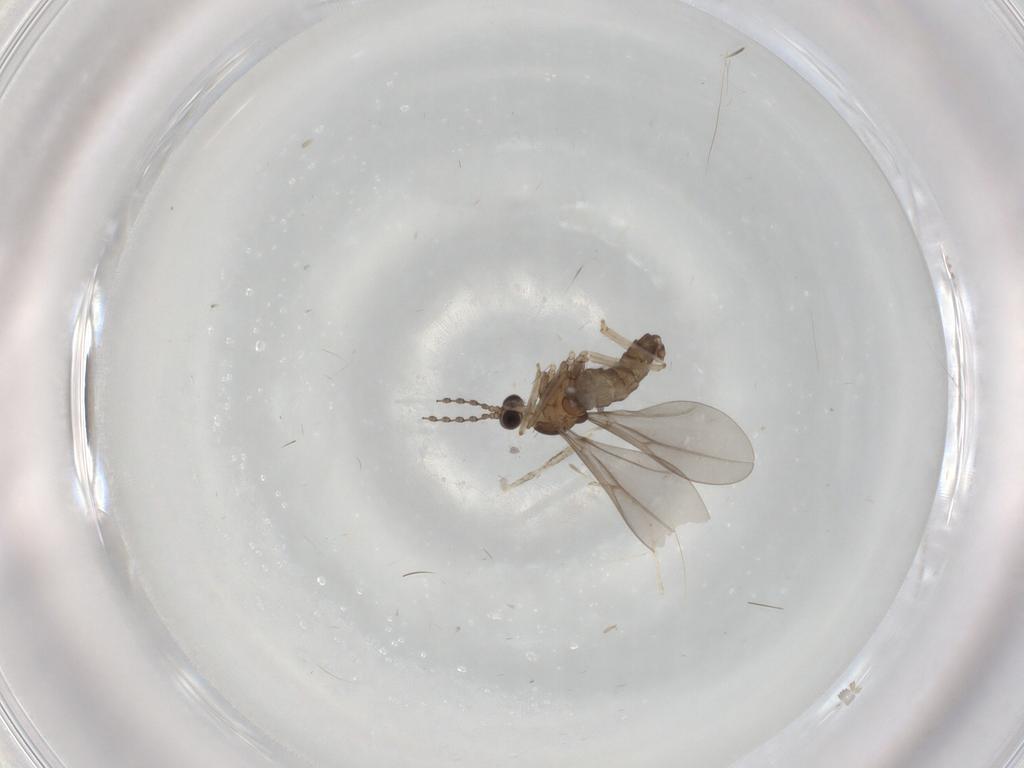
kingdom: Animalia
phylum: Arthropoda
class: Insecta
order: Diptera
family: Cecidomyiidae
